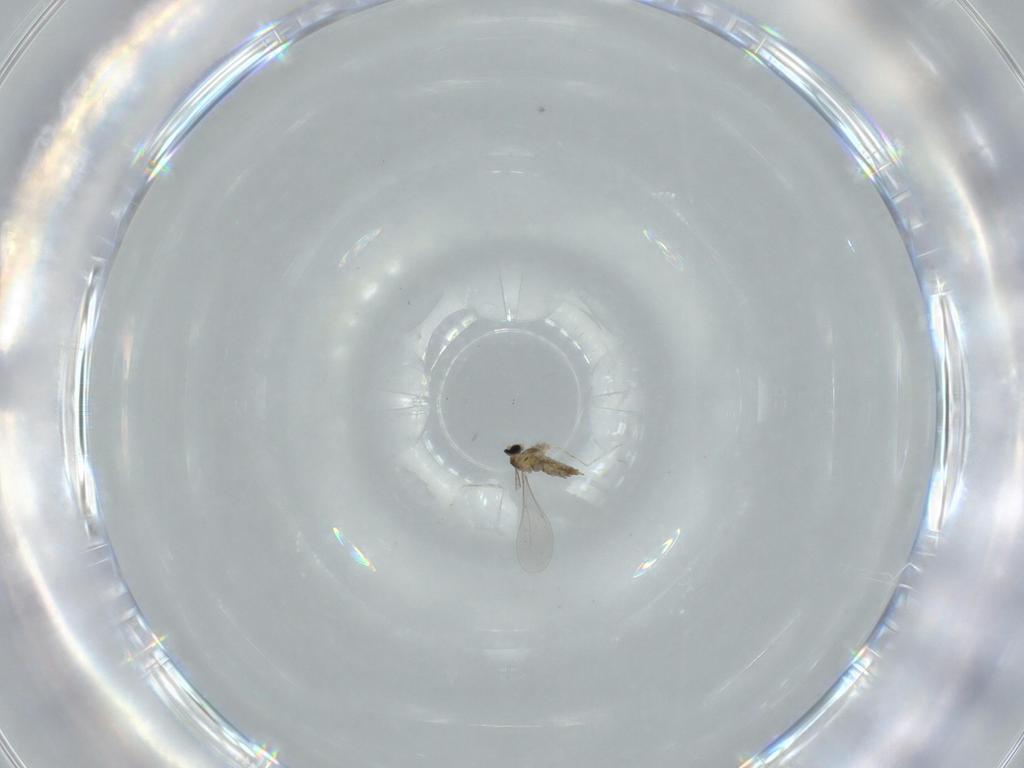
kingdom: Animalia
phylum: Arthropoda
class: Insecta
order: Diptera
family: Cecidomyiidae
